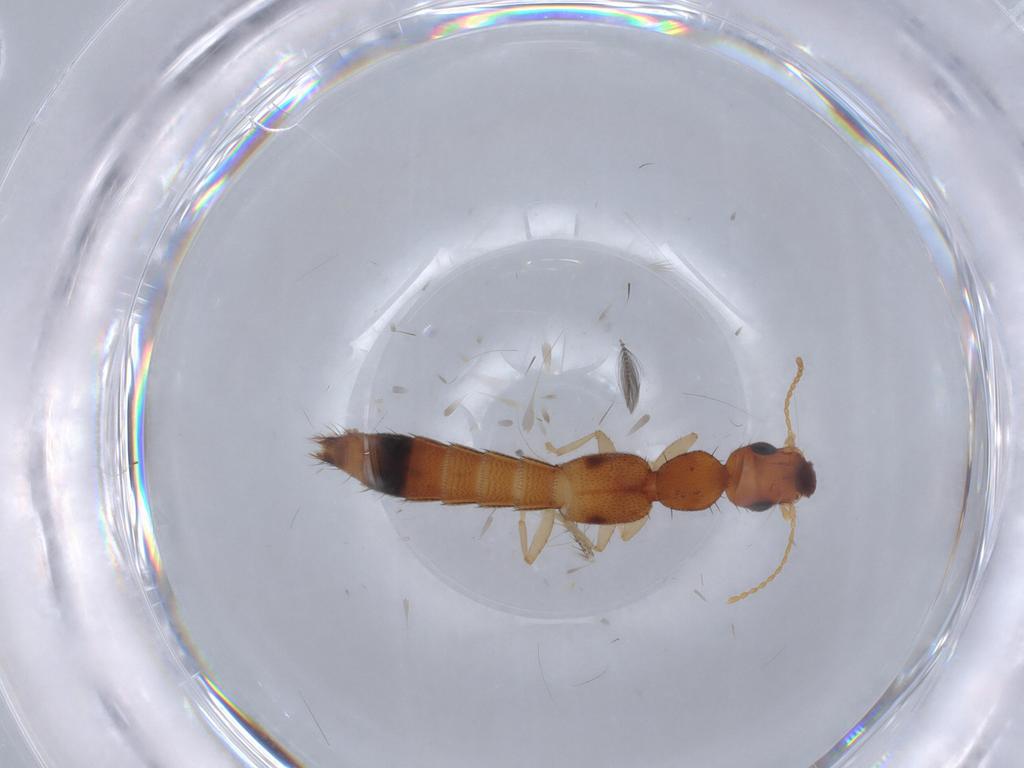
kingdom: Animalia
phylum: Arthropoda
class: Insecta
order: Coleoptera
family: Staphylinidae
